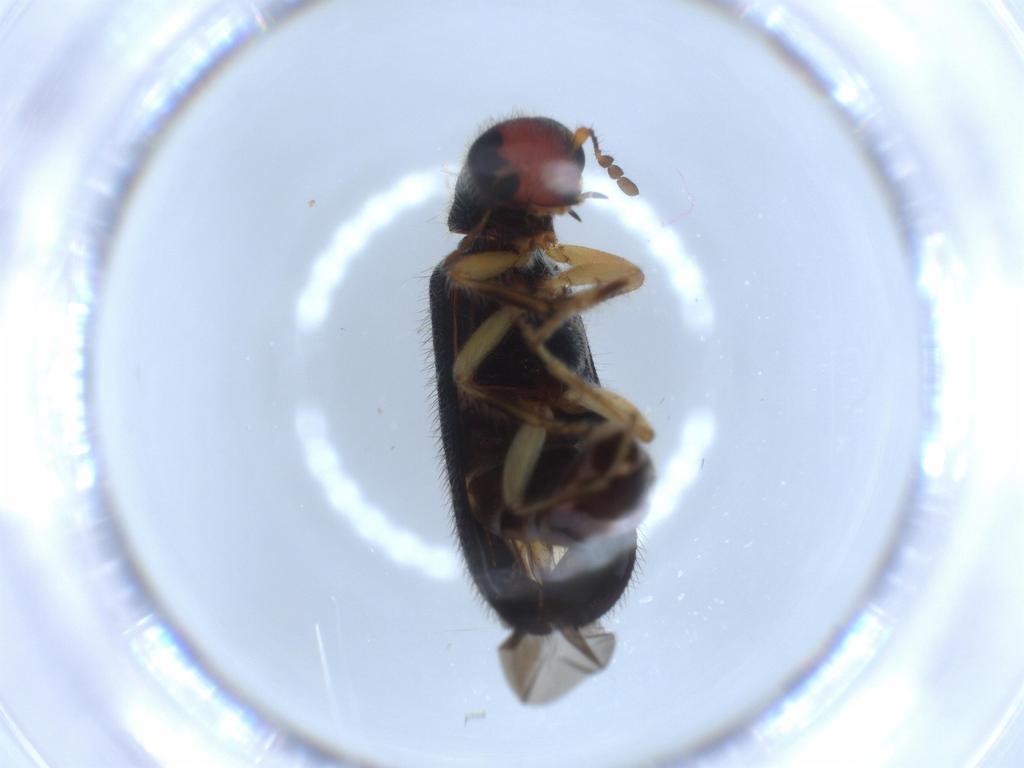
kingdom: Animalia
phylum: Arthropoda
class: Insecta
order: Coleoptera
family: Cleridae
